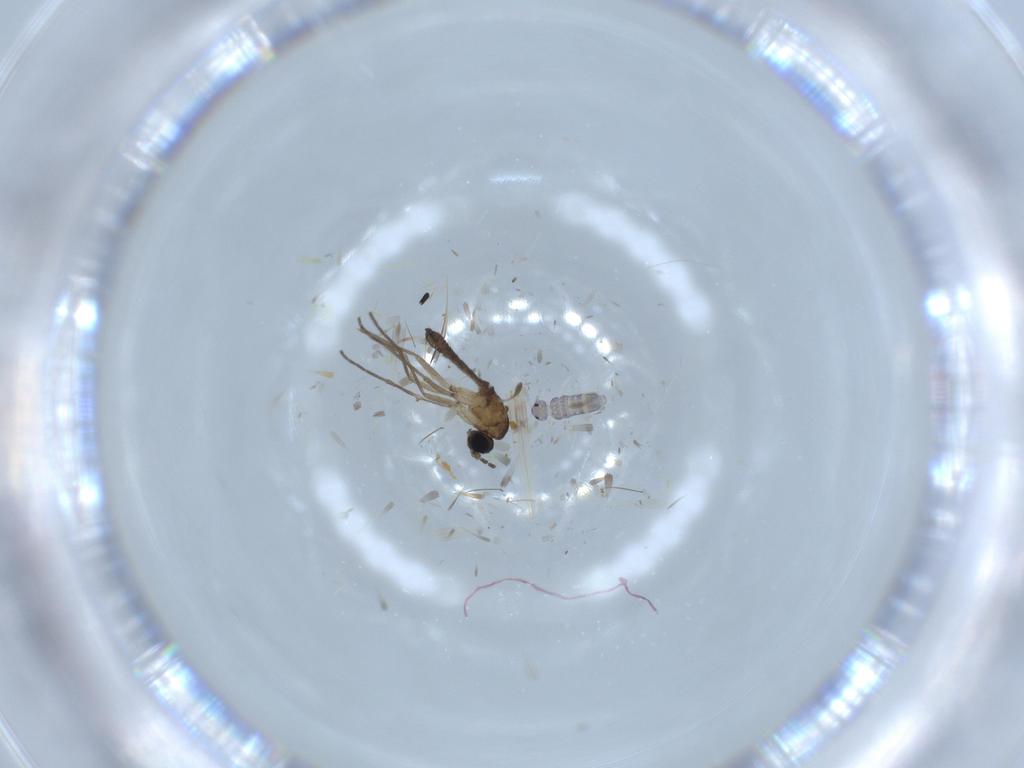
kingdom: Animalia
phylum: Arthropoda
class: Insecta
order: Diptera
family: Sciaridae
